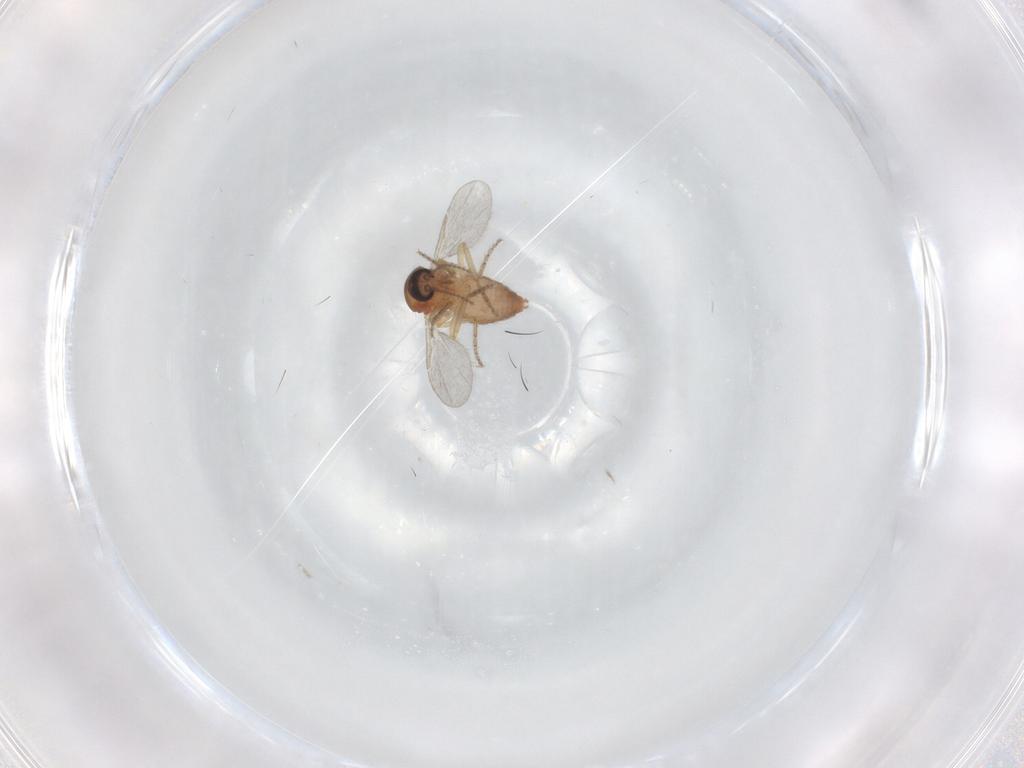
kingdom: Animalia
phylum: Arthropoda
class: Insecta
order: Diptera
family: Ceratopogonidae
